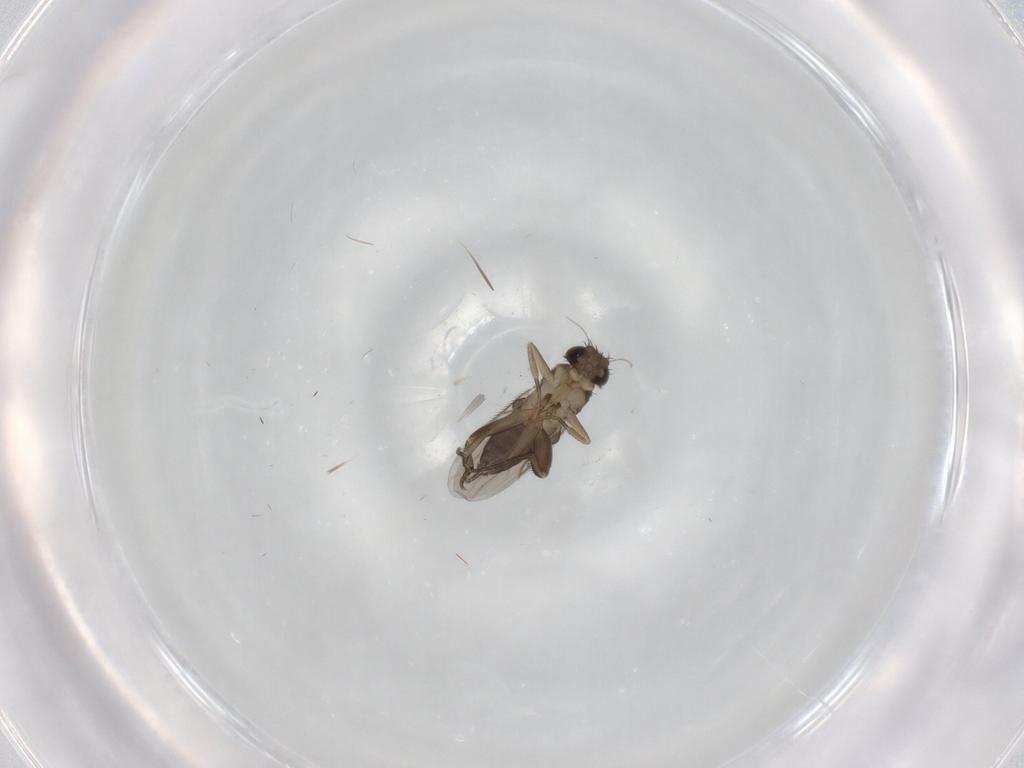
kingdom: Animalia
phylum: Arthropoda
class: Insecta
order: Diptera
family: Phoridae
